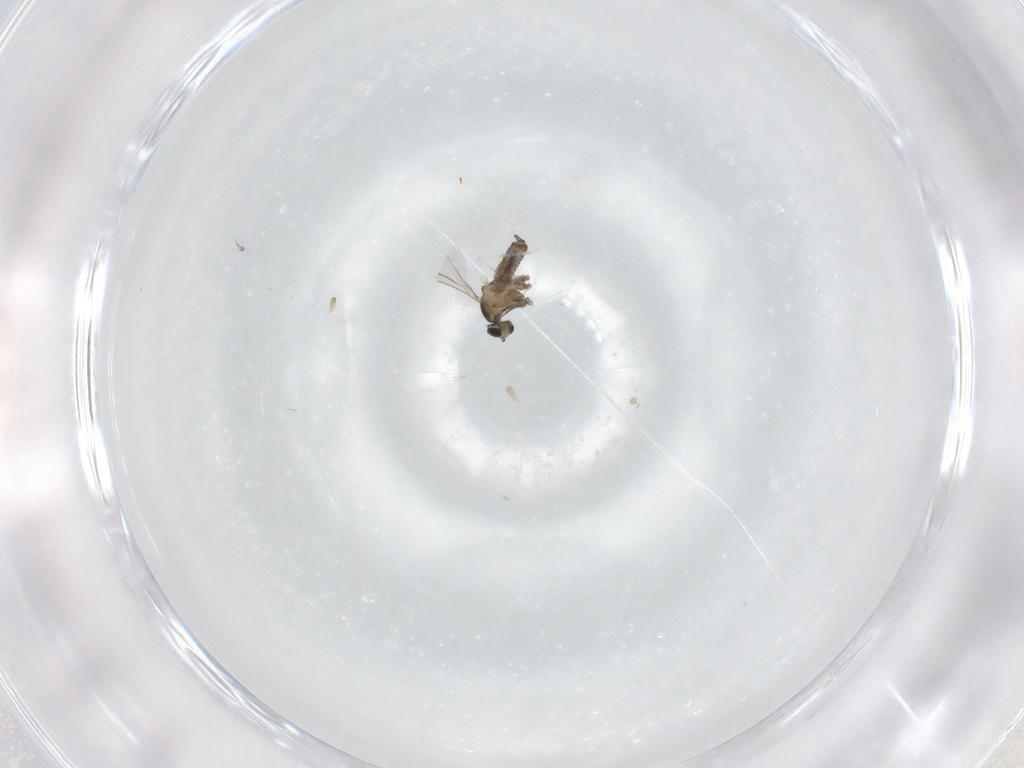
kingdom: Animalia
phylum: Arthropoda
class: Insecta
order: Diptera
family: Cecidomyiidae
